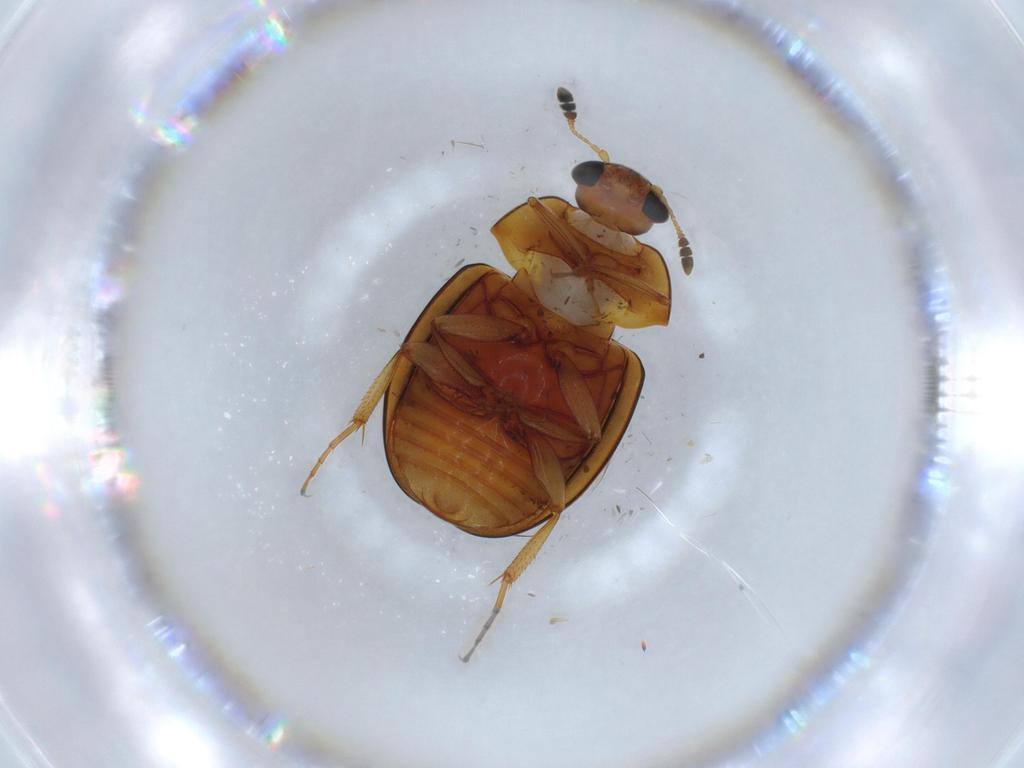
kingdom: Animalia
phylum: Arthropoda
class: Insecta
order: Coleoptera
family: Nitidulidae
